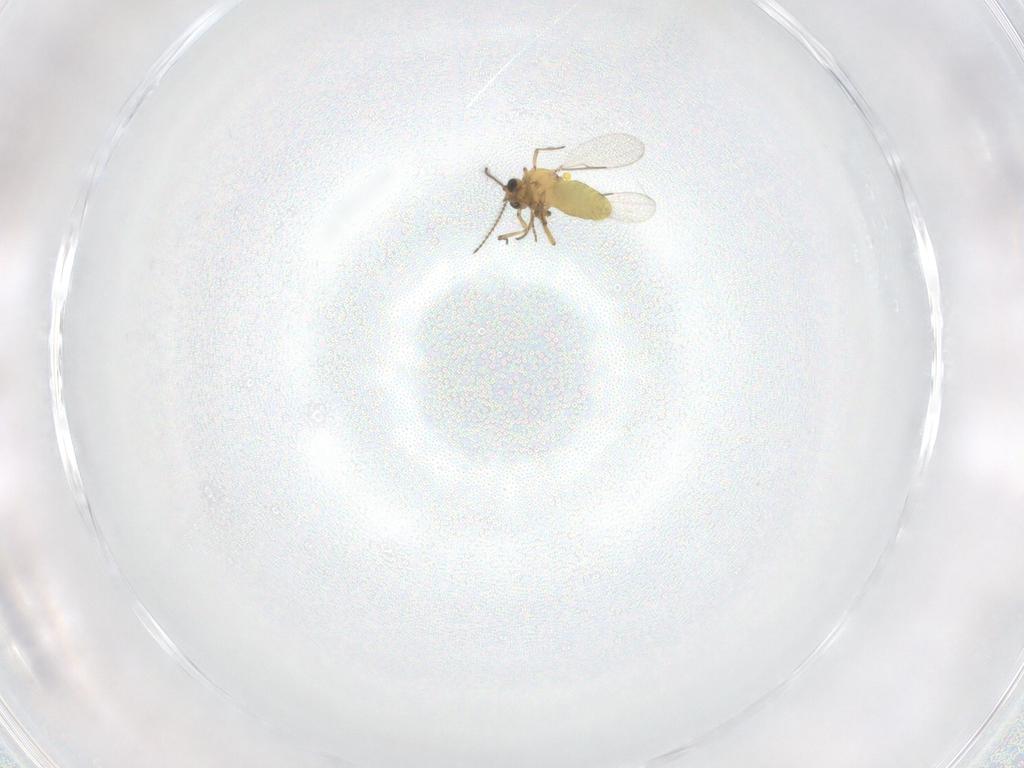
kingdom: Animalia
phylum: Arthropoda
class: Insecta
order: Diptera
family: Ceratopogonidae
